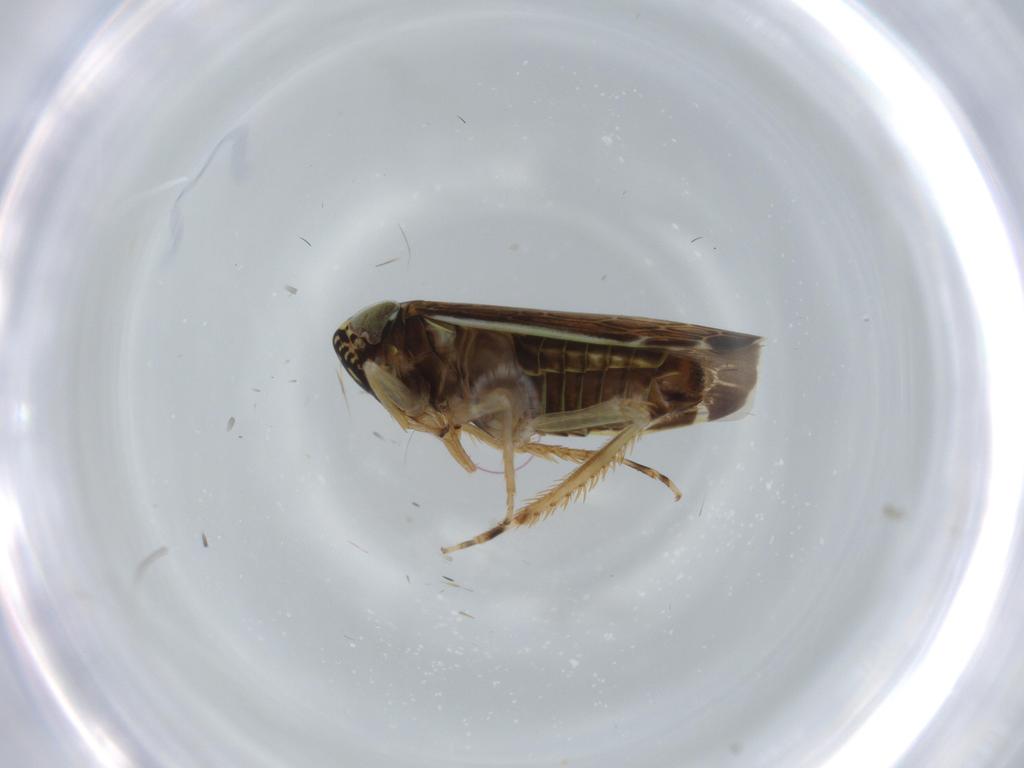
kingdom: Animalia
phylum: Arthropoda
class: Insecta
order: Hemiptera
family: Cicadellidae
